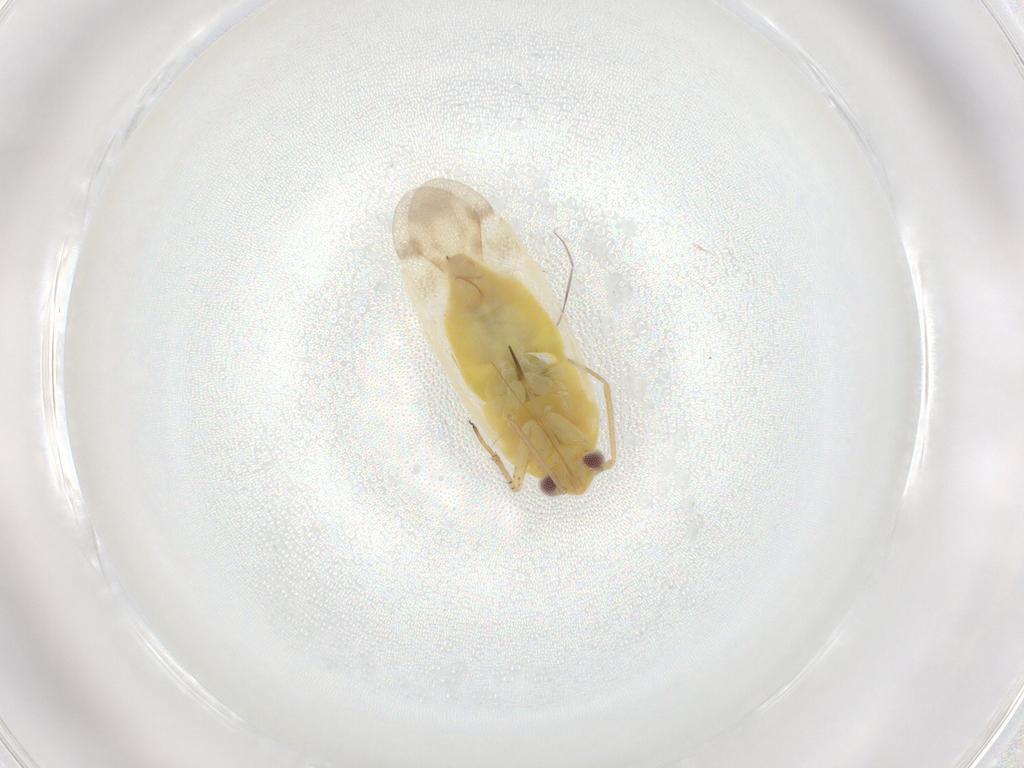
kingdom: Animalia
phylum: Arthropoda
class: Insecta
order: Hemiptera
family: Miridae
